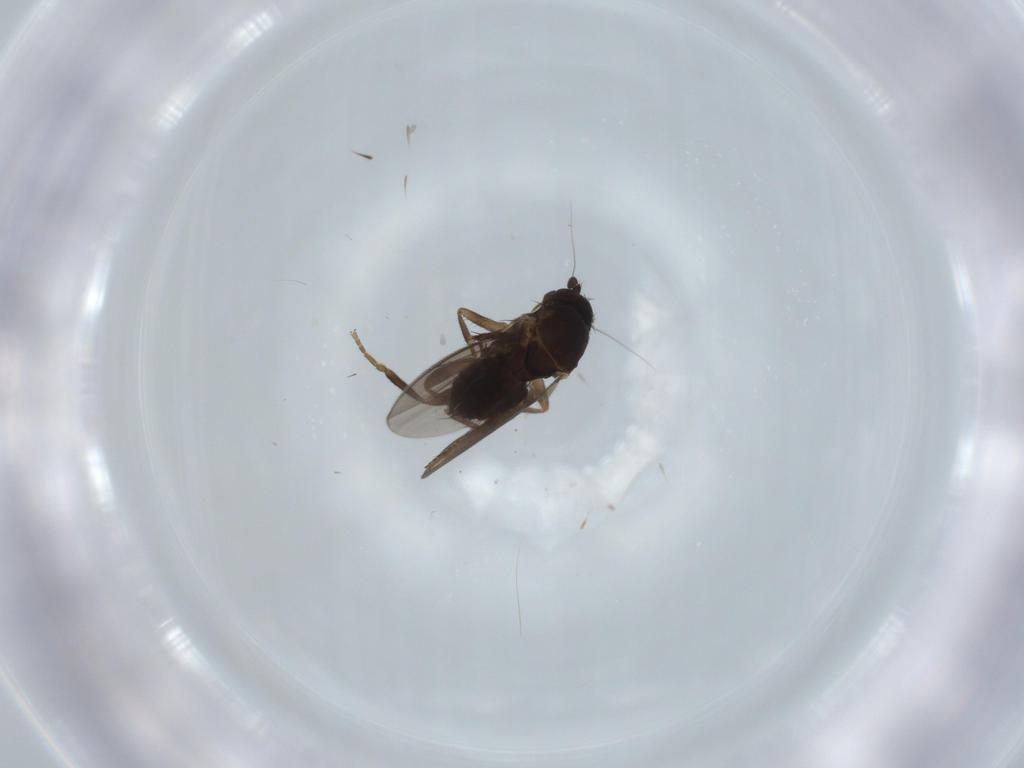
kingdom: Animalia
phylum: Arthropoda
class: Insecta
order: Diptera
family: Sphaeroceridae
